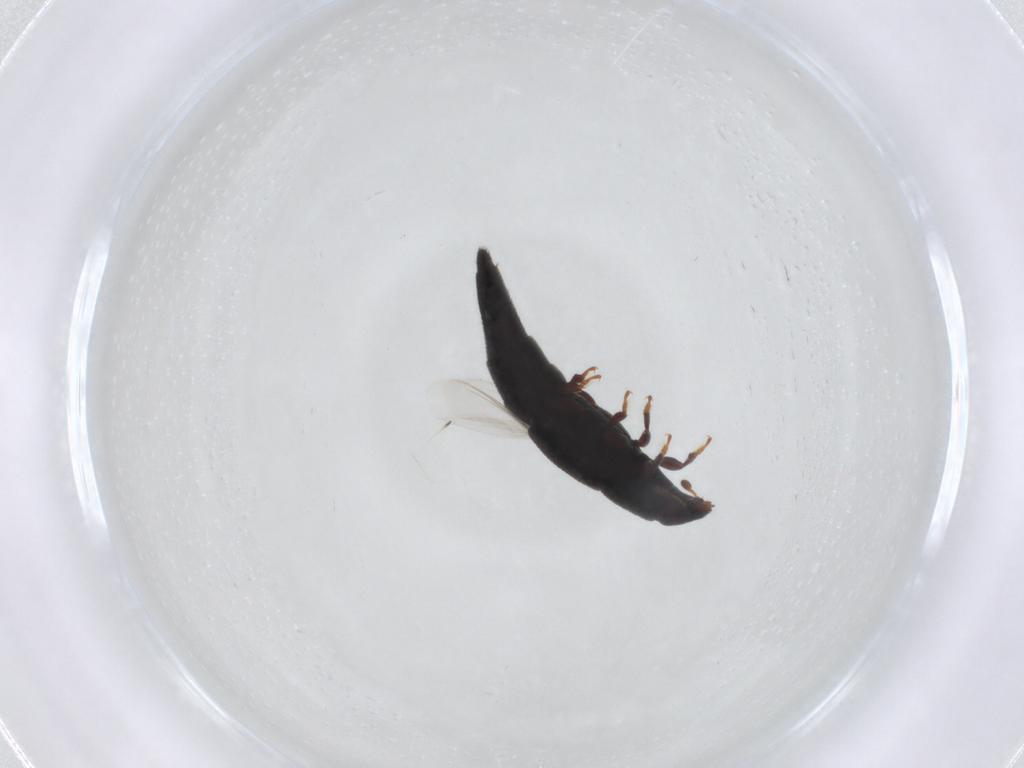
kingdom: Animalia
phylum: Arthropoda
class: Insecta
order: Coleoptera
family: Nitidulidae
